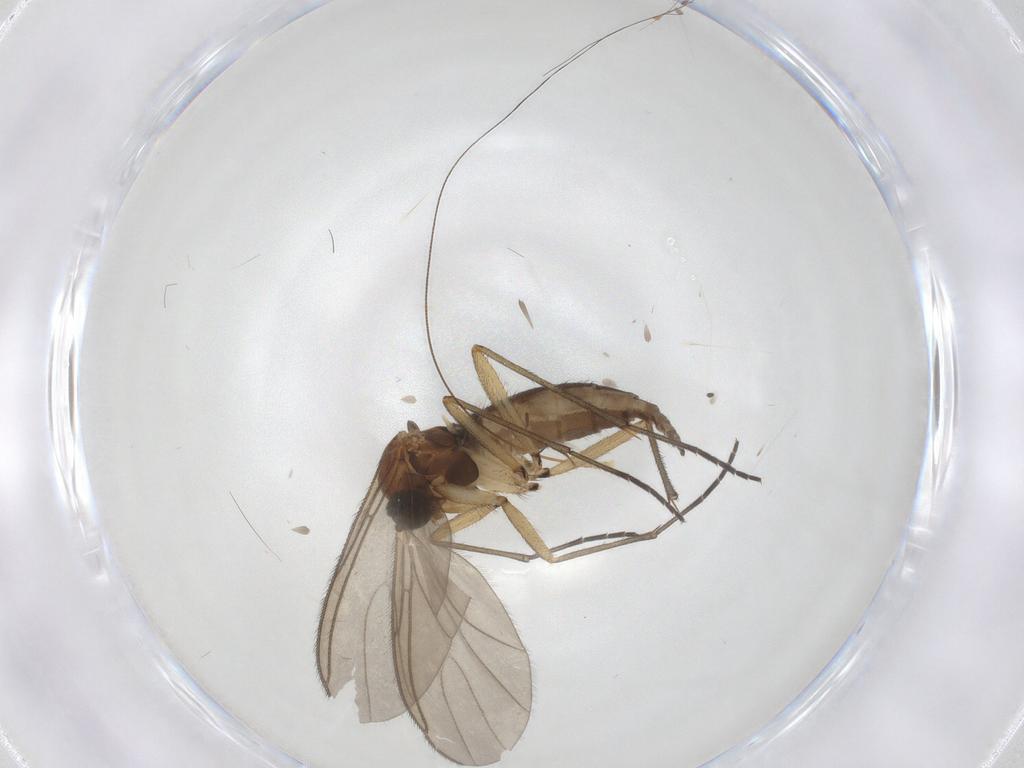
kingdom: Animalia
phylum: Arthropoda
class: Insecta
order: Diptera
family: Sciaridae
